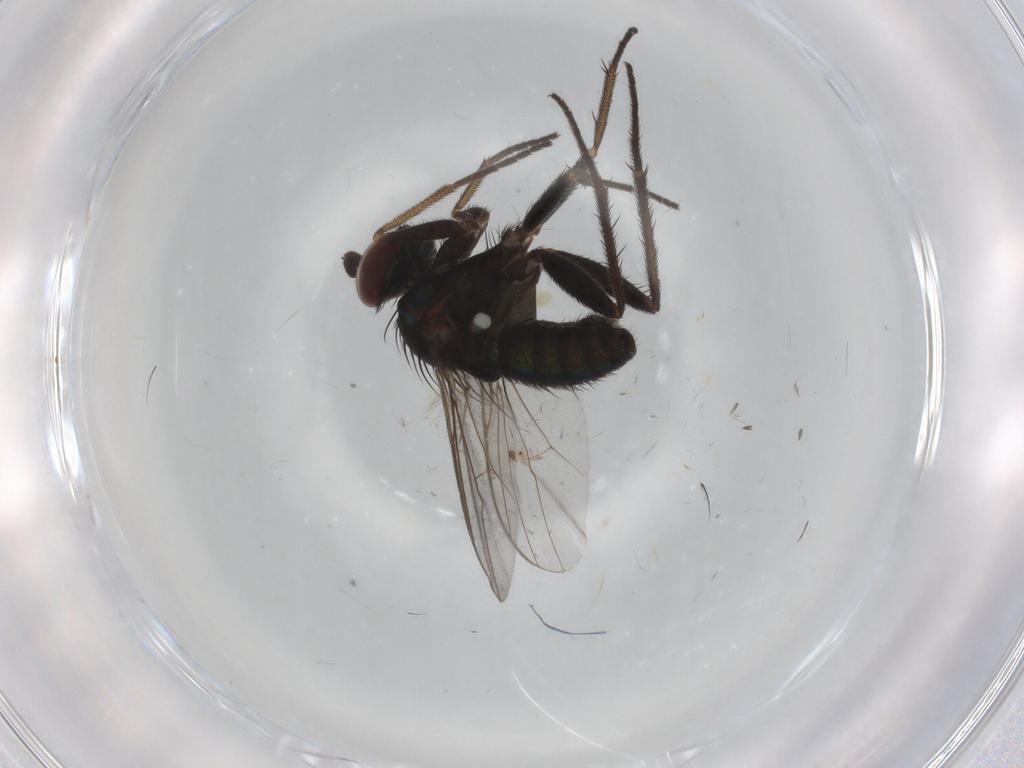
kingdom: Animalia
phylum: Arthropoda
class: Insecta
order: Diptera
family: Dolichopodidae
